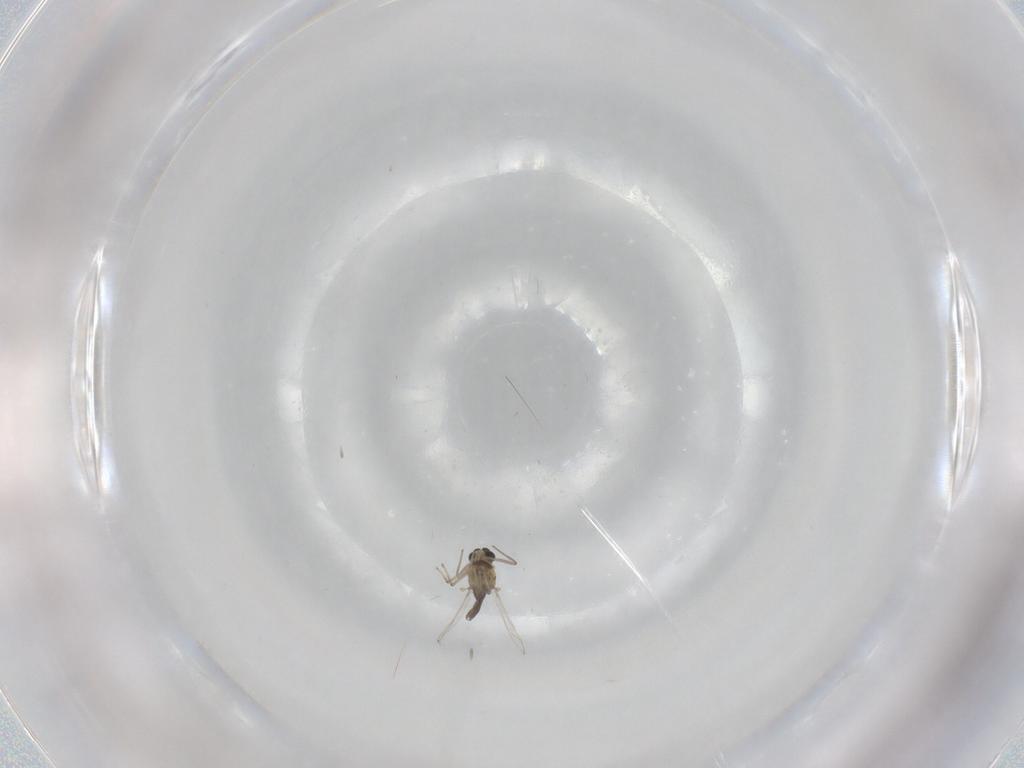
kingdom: Animalia
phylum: Arthropoda
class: Insecta
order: Diptera
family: Chironomidae
